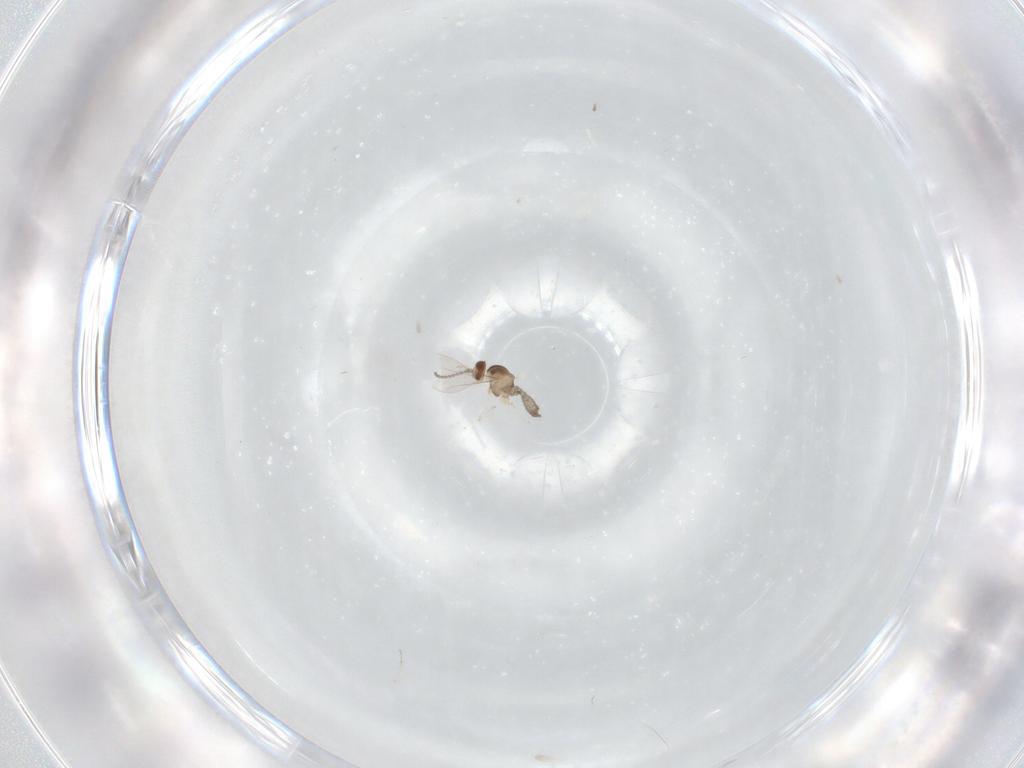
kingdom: Animalia
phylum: Arthropoda
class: Insecta
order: Diptera
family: Cecidomyiidae
